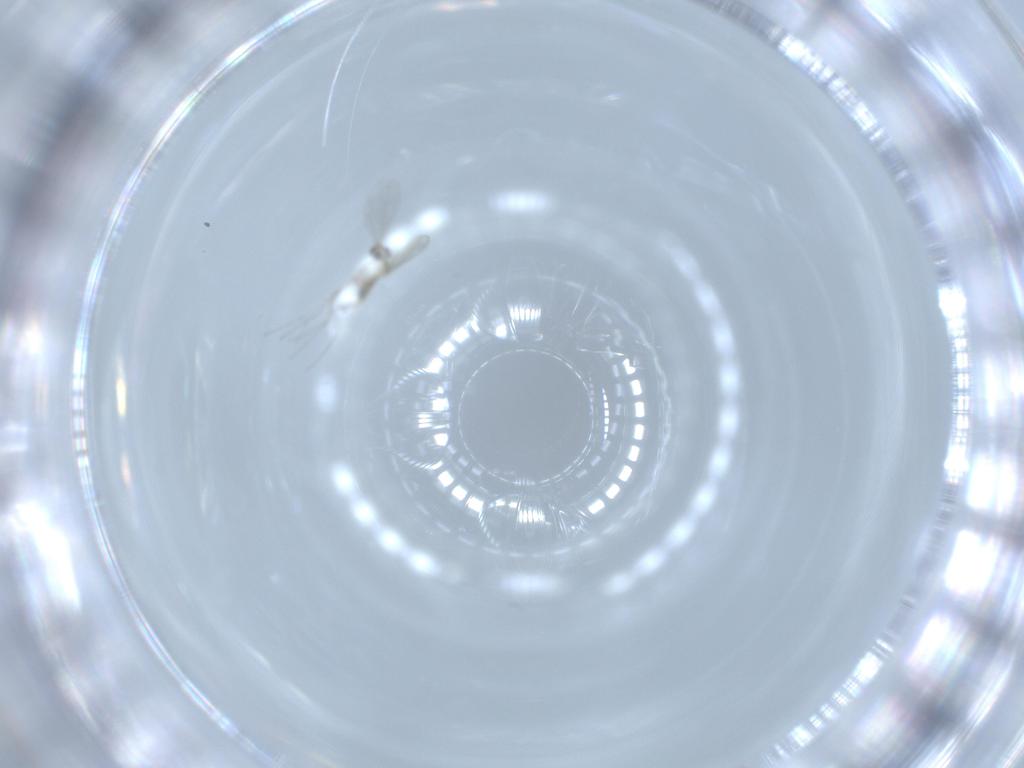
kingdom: Animalia
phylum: Arthropoda
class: Insecta
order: Diptera
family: Cecidomyiidae
